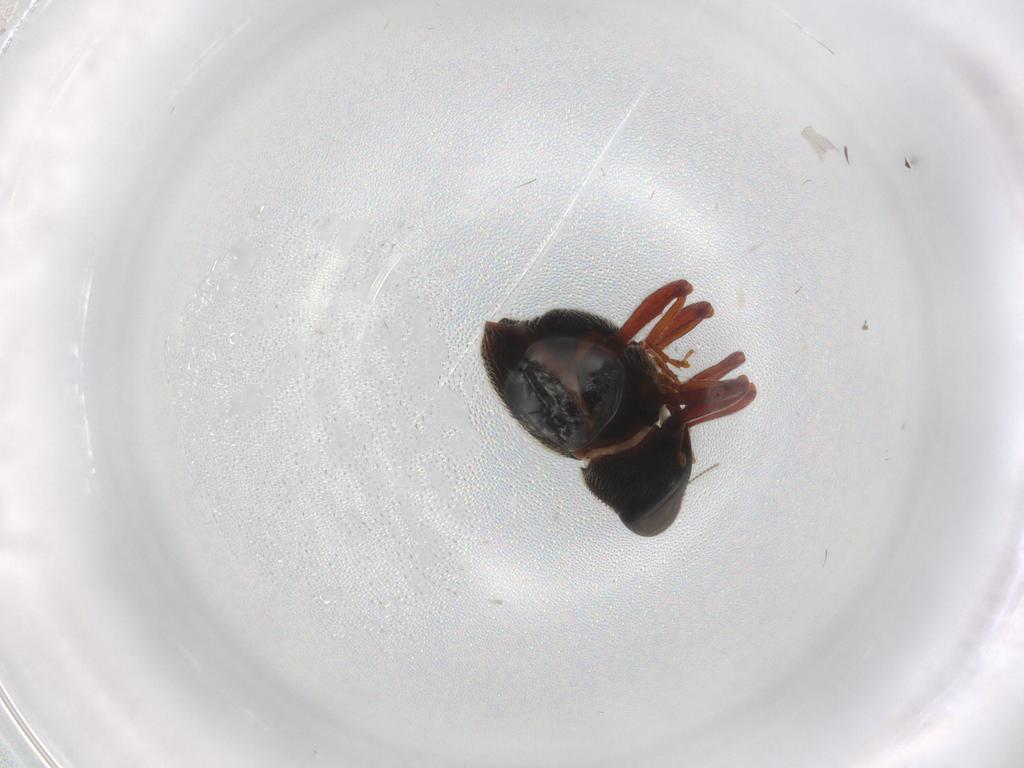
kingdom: Animalia
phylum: Arthropoda
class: Insecta
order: Coleoptera
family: Curculionidae
